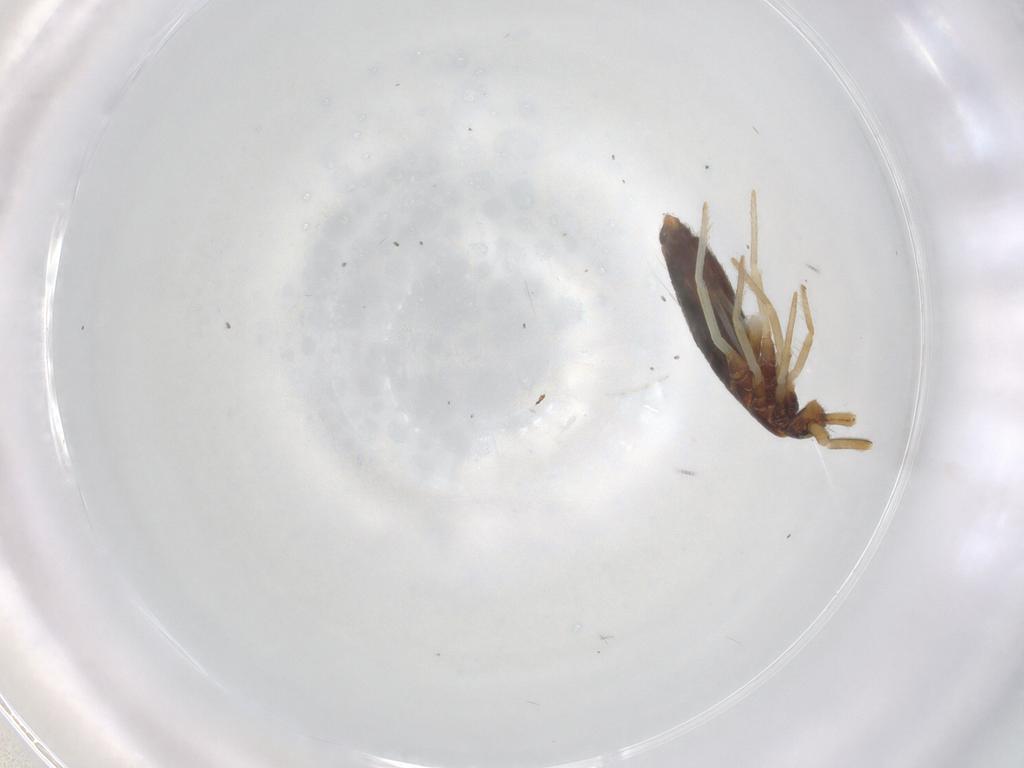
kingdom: Animalia
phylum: Arthropoda
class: Collembola
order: Entomobryomorpha
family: Entomobryidae
